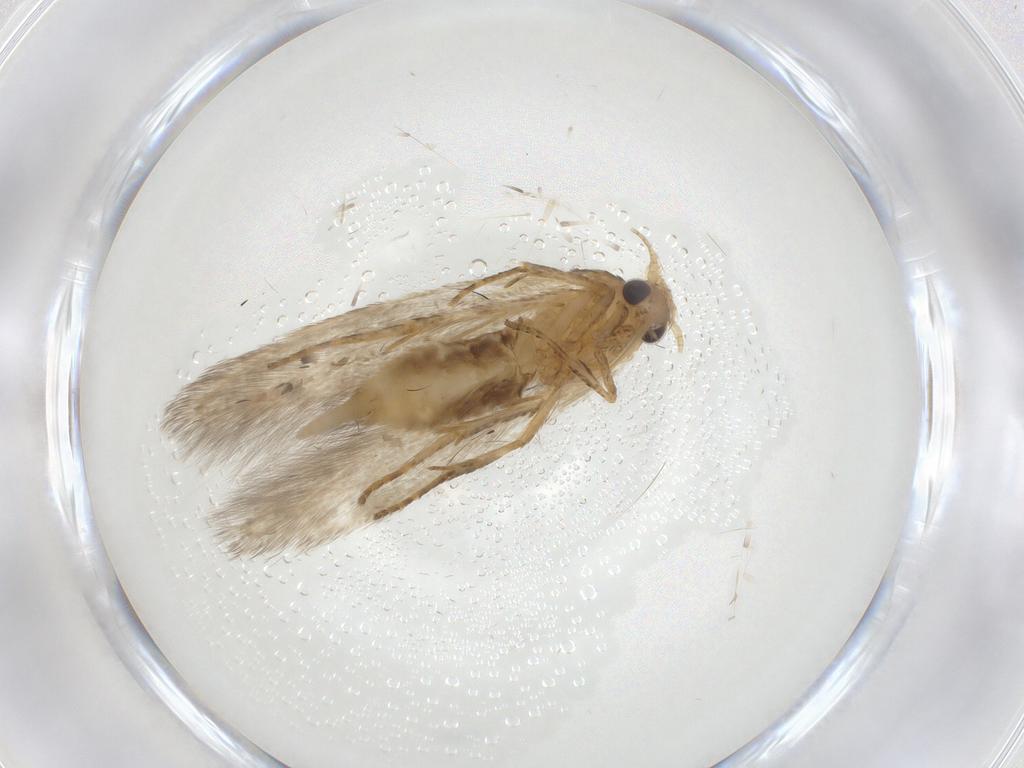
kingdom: Animalia
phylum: Arthropoda
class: Insecta
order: Lepidoptera
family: Blastobasidae
